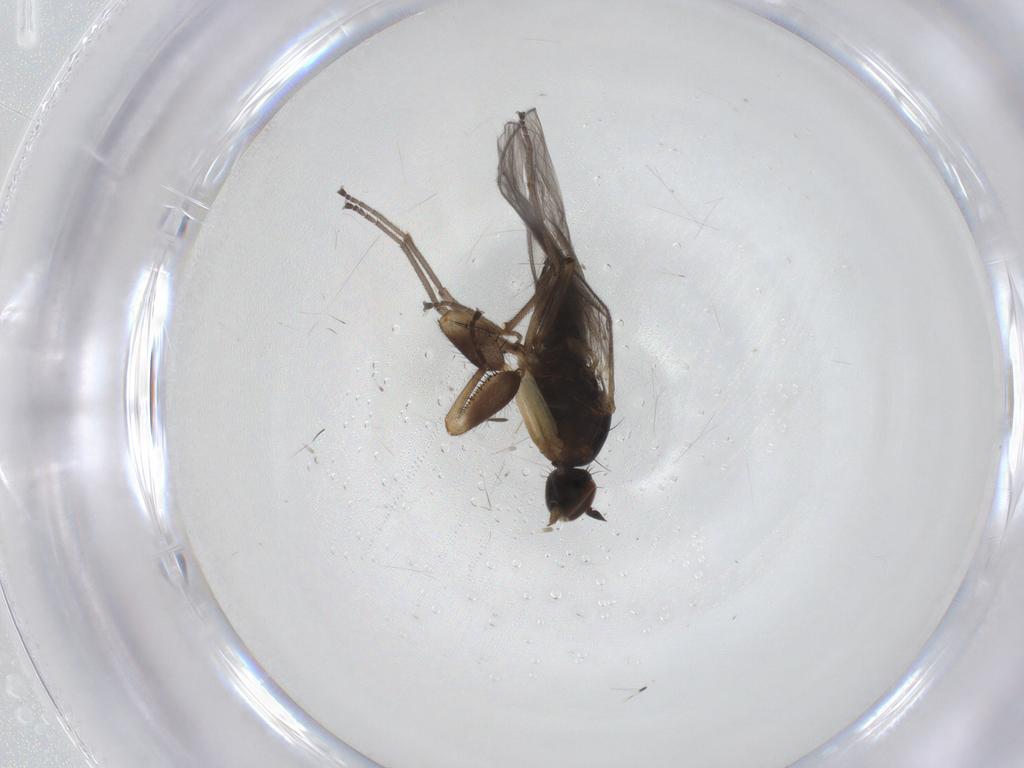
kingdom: Animalia
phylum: Arthropoda
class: Insecta
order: Diptera
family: Empididae
